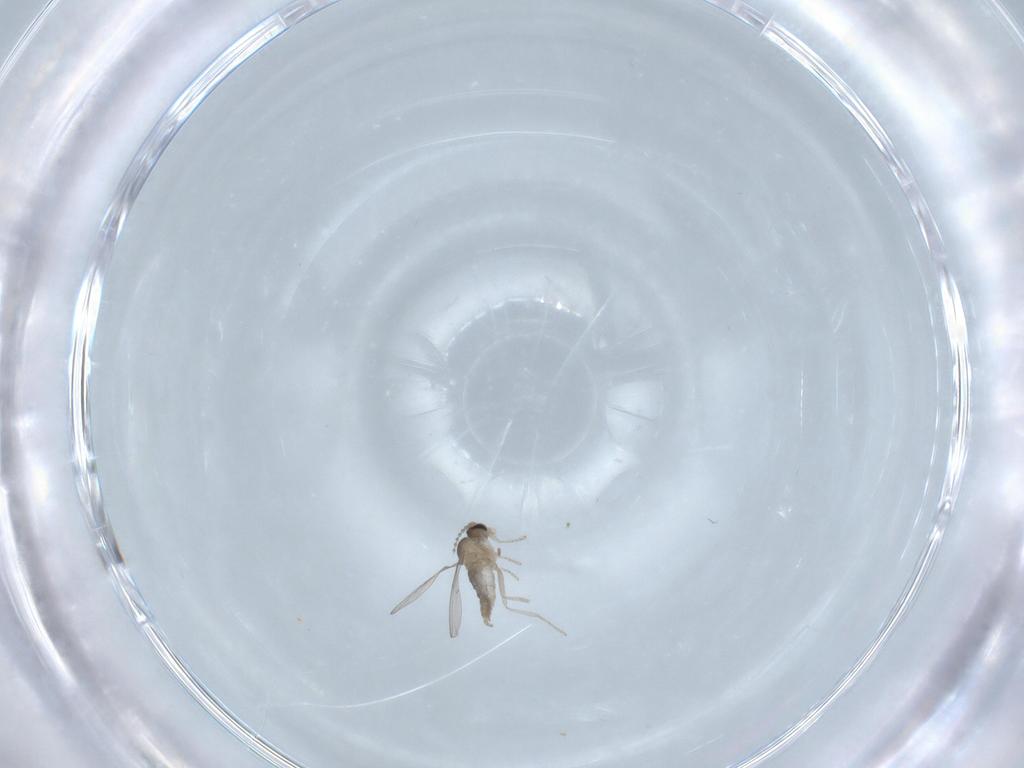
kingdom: Animalia
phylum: Arthropoda
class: Insecta
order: Diptera
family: Cecidomyiidae
